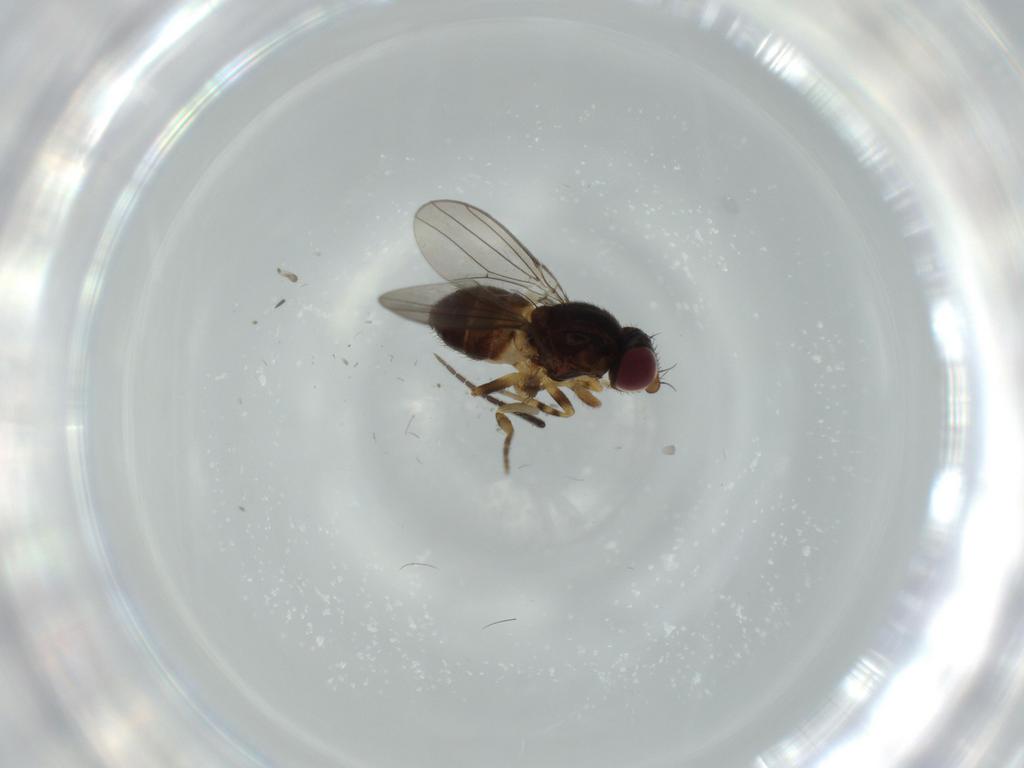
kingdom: Animalia
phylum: Arthropoda
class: Insecta
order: Diptera
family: Chloropidae
